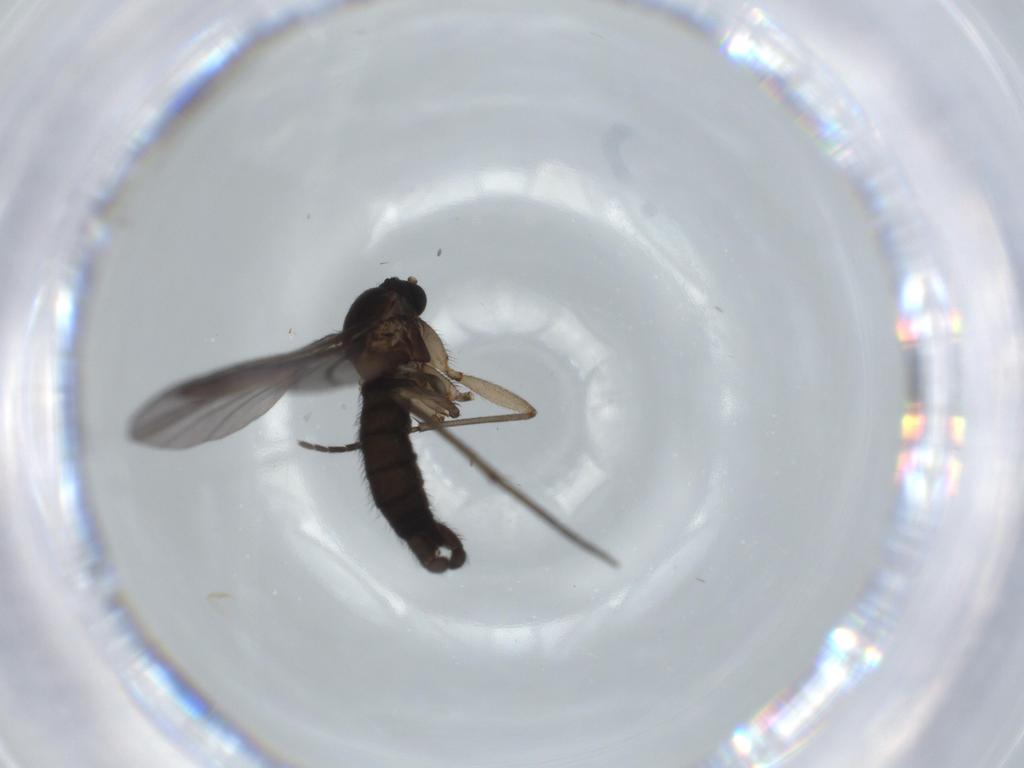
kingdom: Animalia
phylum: Arthropoda
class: Insecta
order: Diptera
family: Sciaridae
